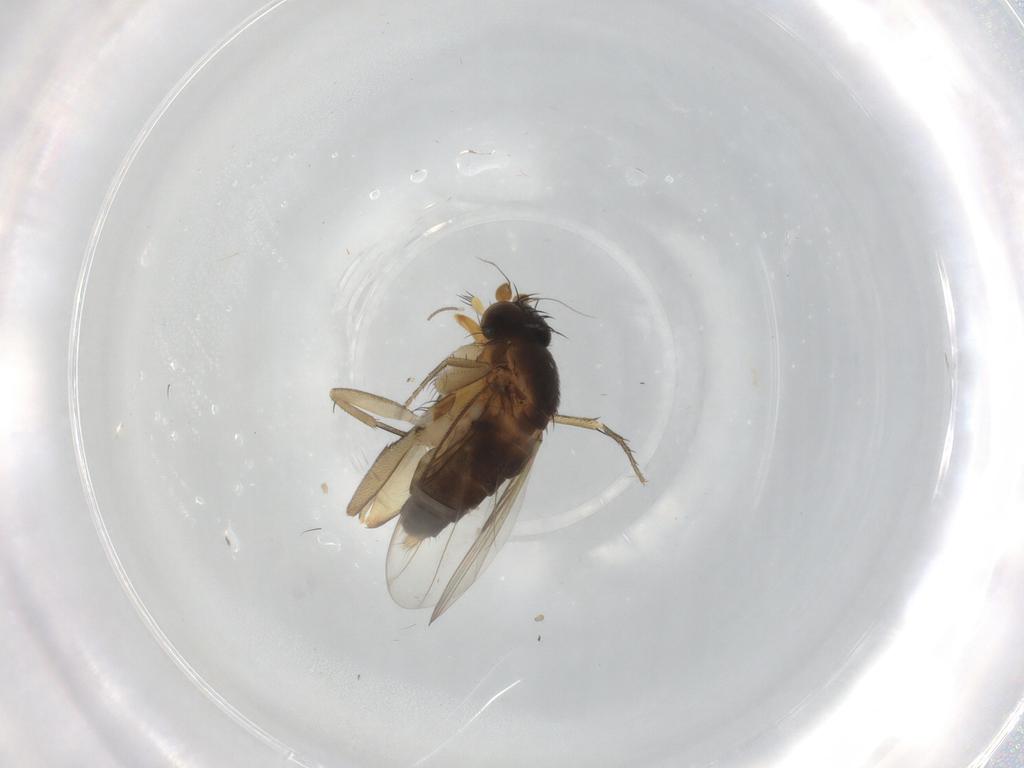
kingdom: Animalia
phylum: Arthropoda
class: Insecta
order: Diptera
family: Phoridae
